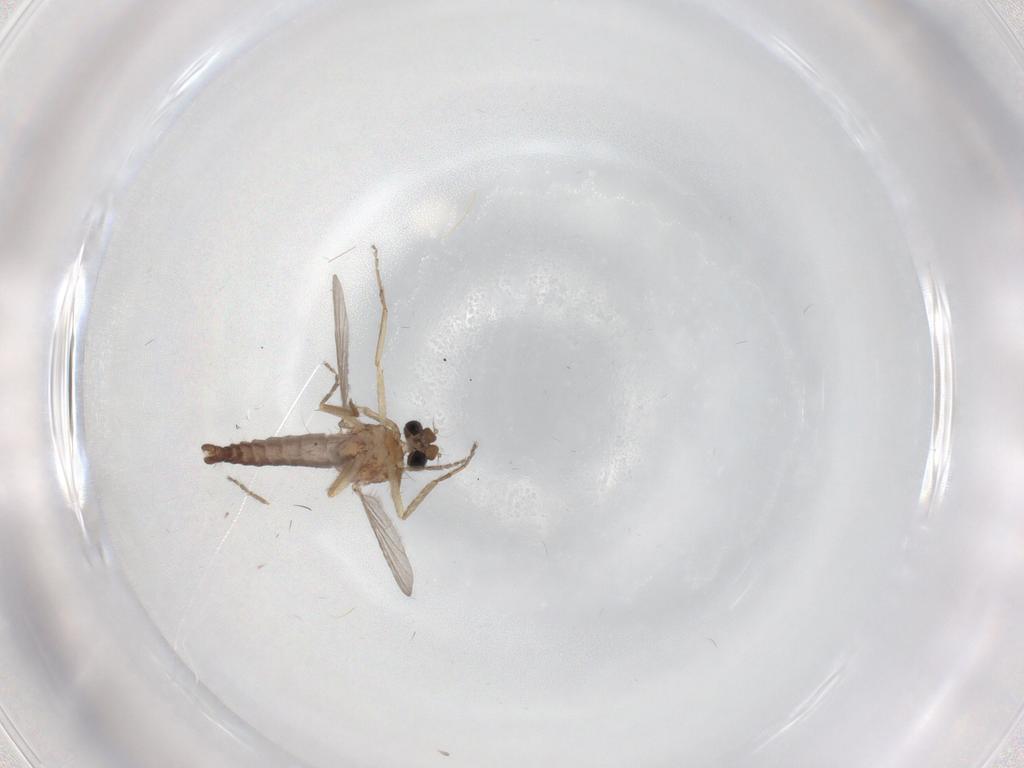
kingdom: Animalia
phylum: Arthropoda
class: Insecta
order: Diptera
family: Ceratopogonidae
